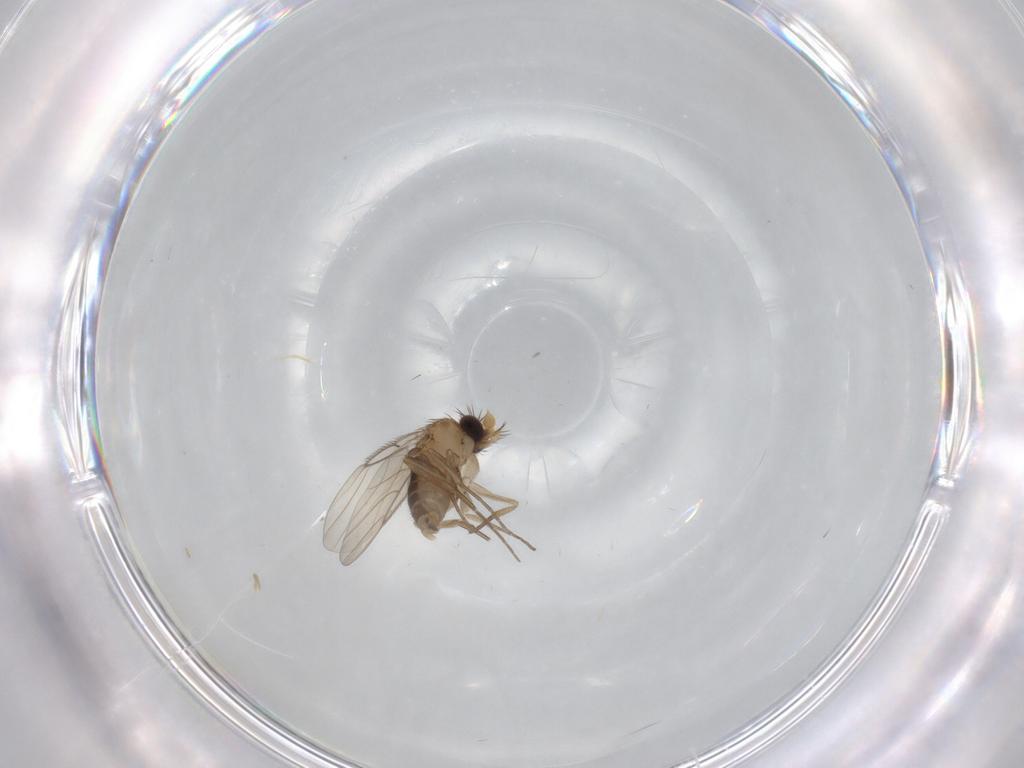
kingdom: Animalia
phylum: Arthropoda
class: Insecta
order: Diptera
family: Phoridae
